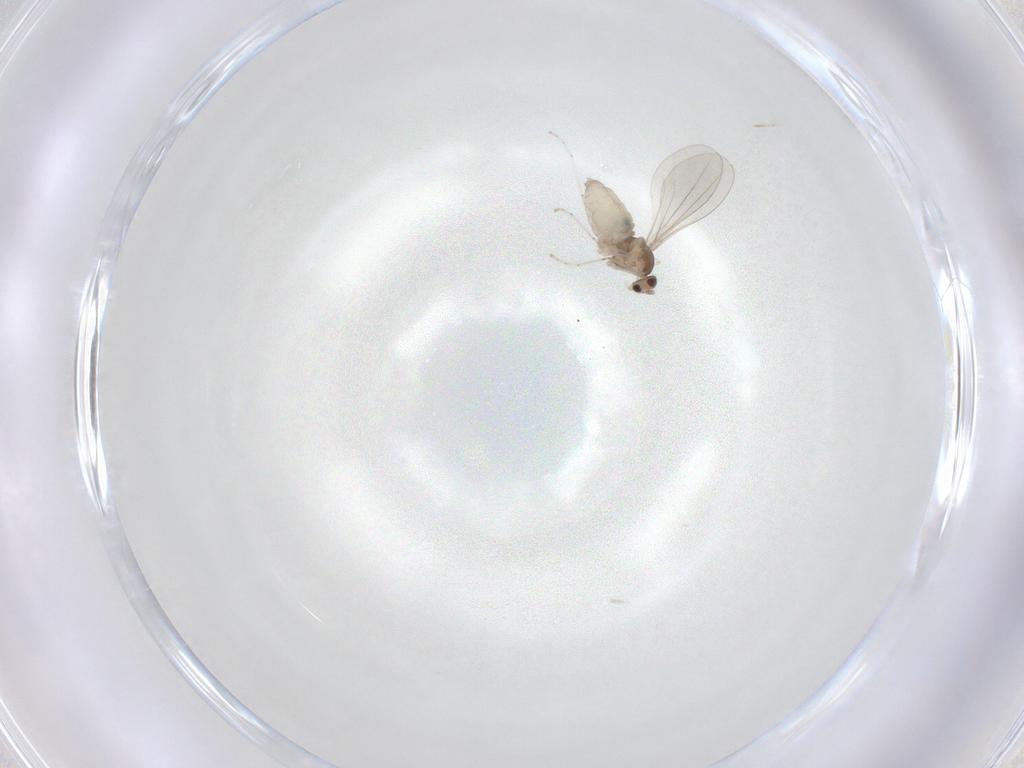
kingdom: Animalia
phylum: Arthropoda
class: Insecta
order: Diptera
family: Cecidomyiidae
